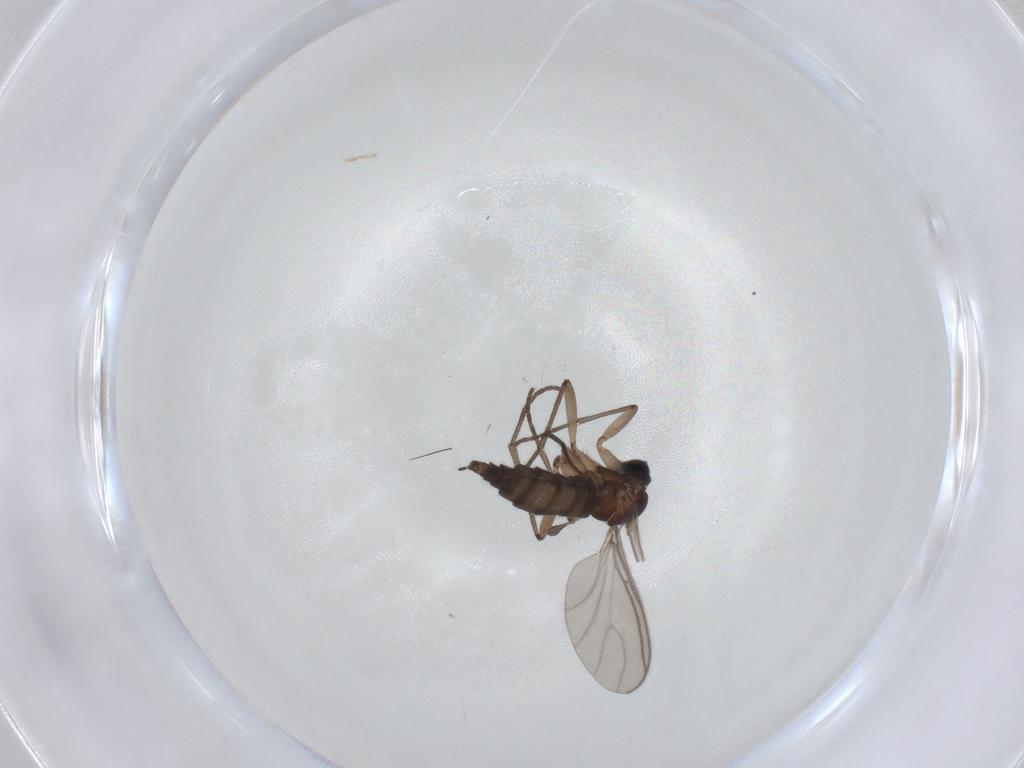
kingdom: Animalia
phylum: Arthropoda
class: Insecta
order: Diptera
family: Sciaridae
